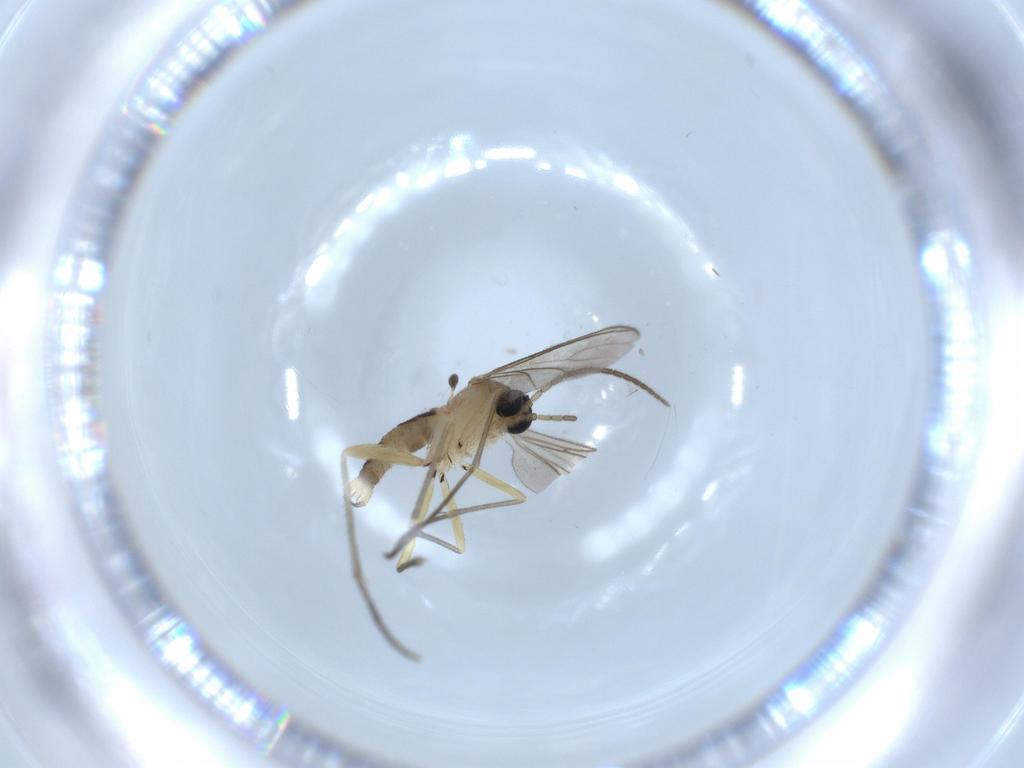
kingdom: Animalia
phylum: Arthropoda
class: Insecta
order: Diptera
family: Sciaridae
